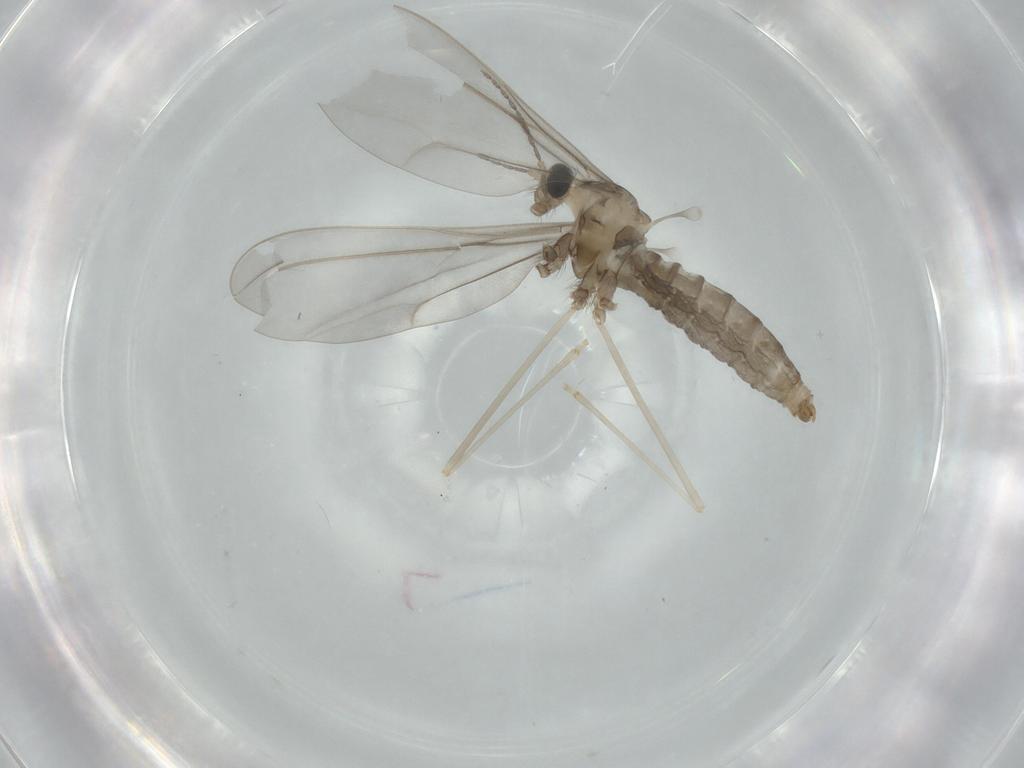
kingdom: Animalia
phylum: Arthropoda
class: Insecta
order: Diptera
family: Cecidomyiidae
